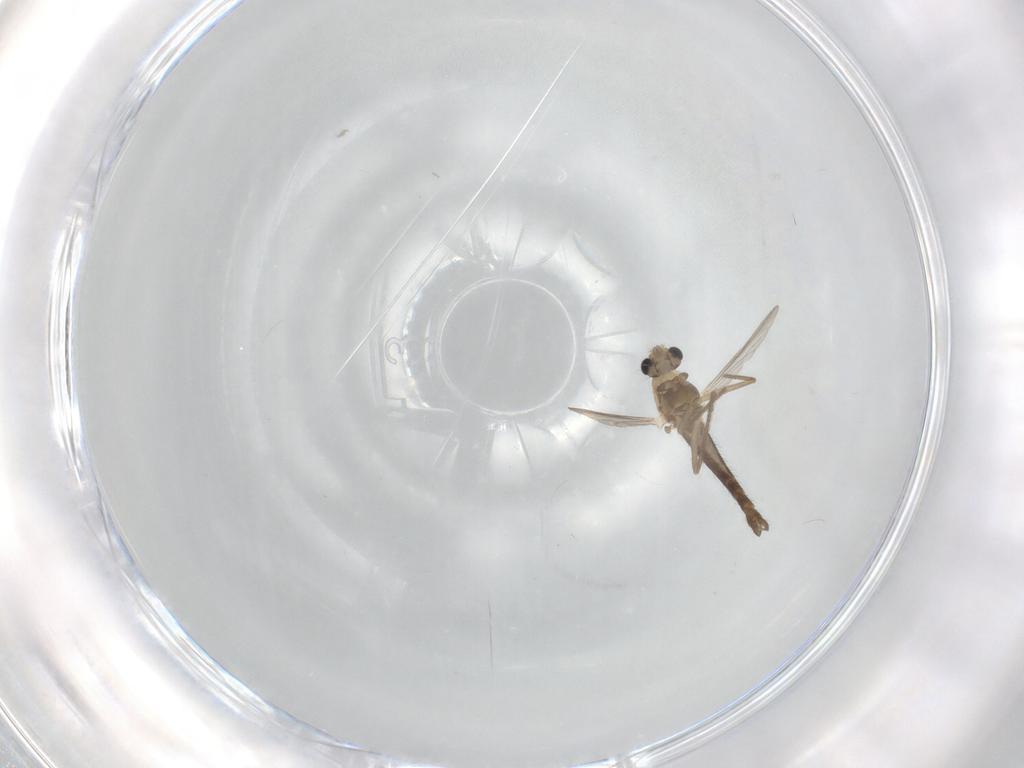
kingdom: Animalia
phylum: Arthropoda
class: Insecta
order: Diptera
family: Chironomidae
